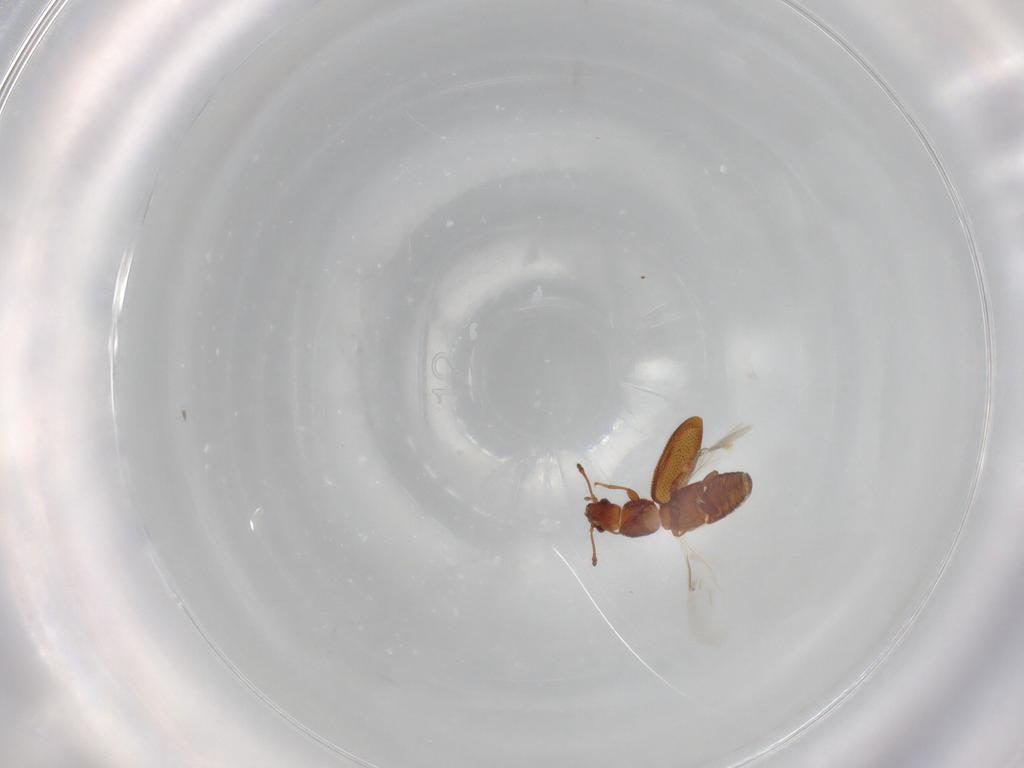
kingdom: Animalia
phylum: Arthropoda
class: Insecta
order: Coleoptera
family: Mycetophagidae
